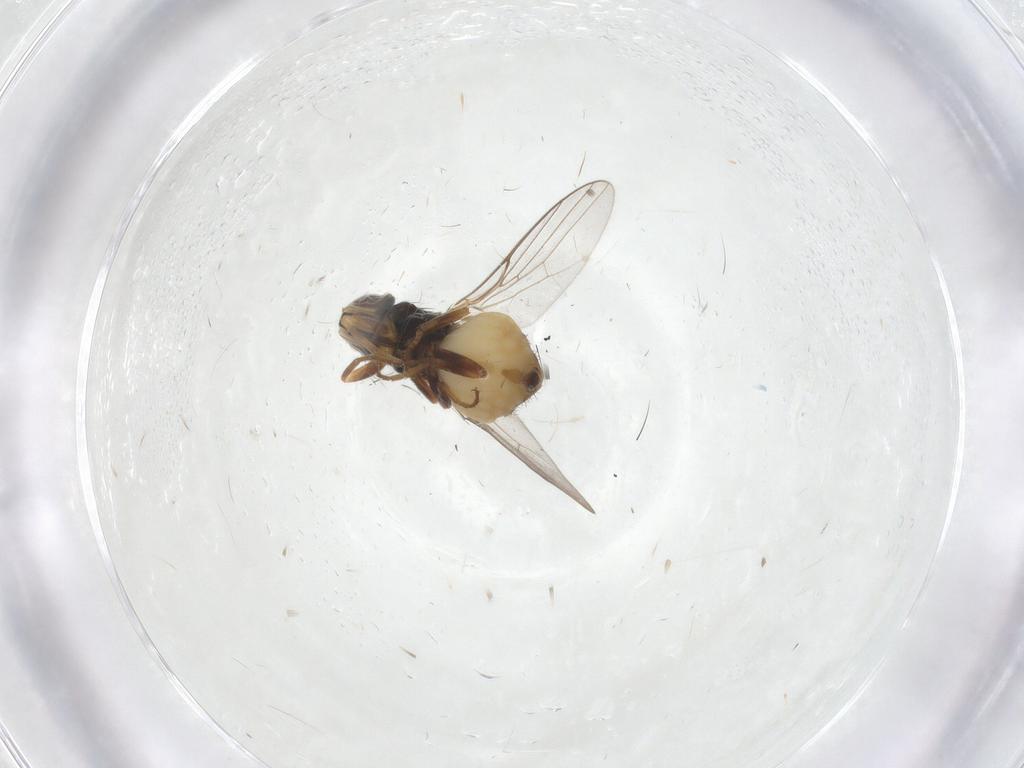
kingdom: Animalia
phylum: Arthropoda
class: Insecta
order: Diptera
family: Chloropidae
